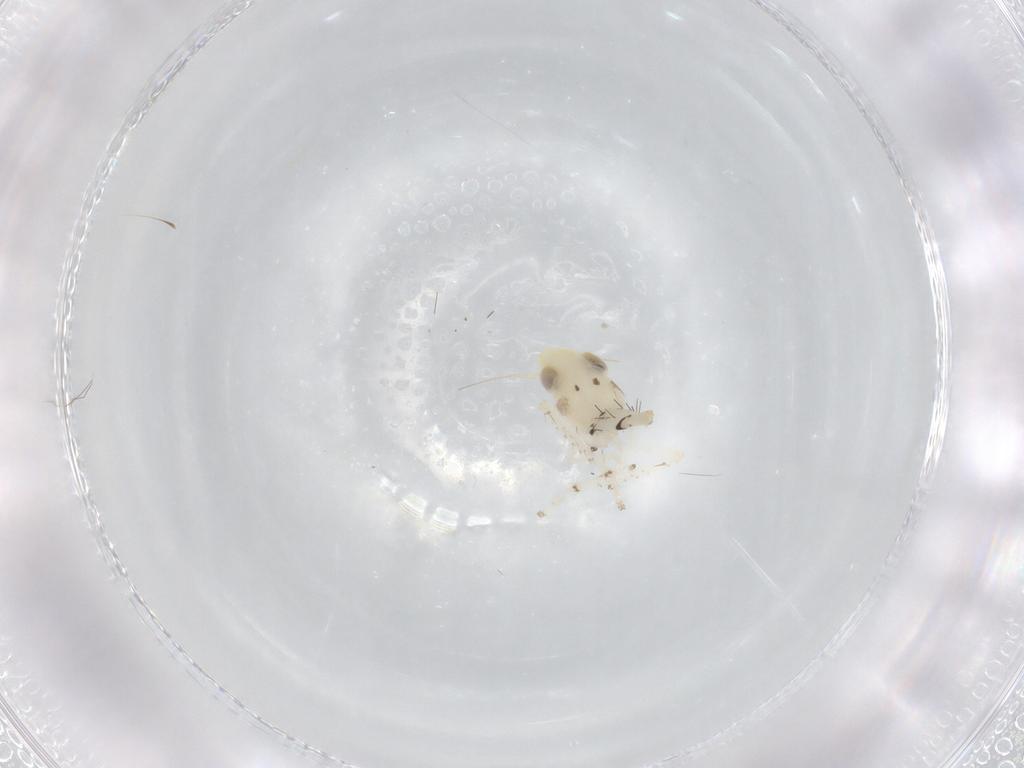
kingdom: Animalia
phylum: Arthropoda
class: Insecta
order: Hemiptera
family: Cicadellidae
